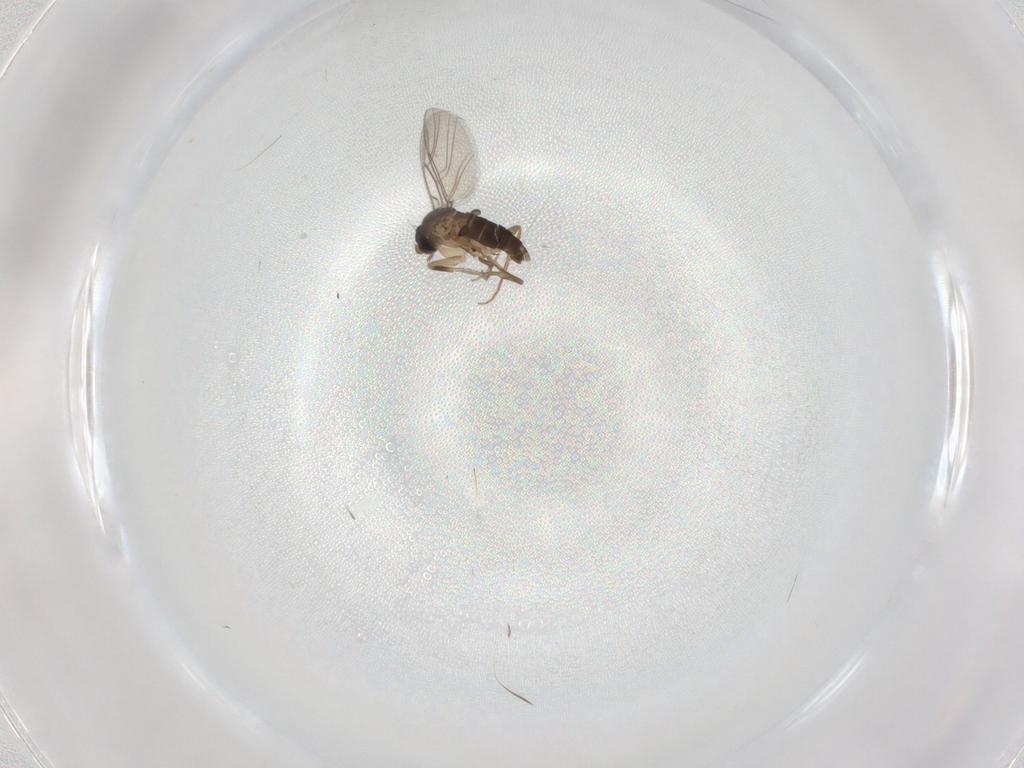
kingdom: Animalia
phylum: Arthropoda
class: Insecta
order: Diptera
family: Phoridae
